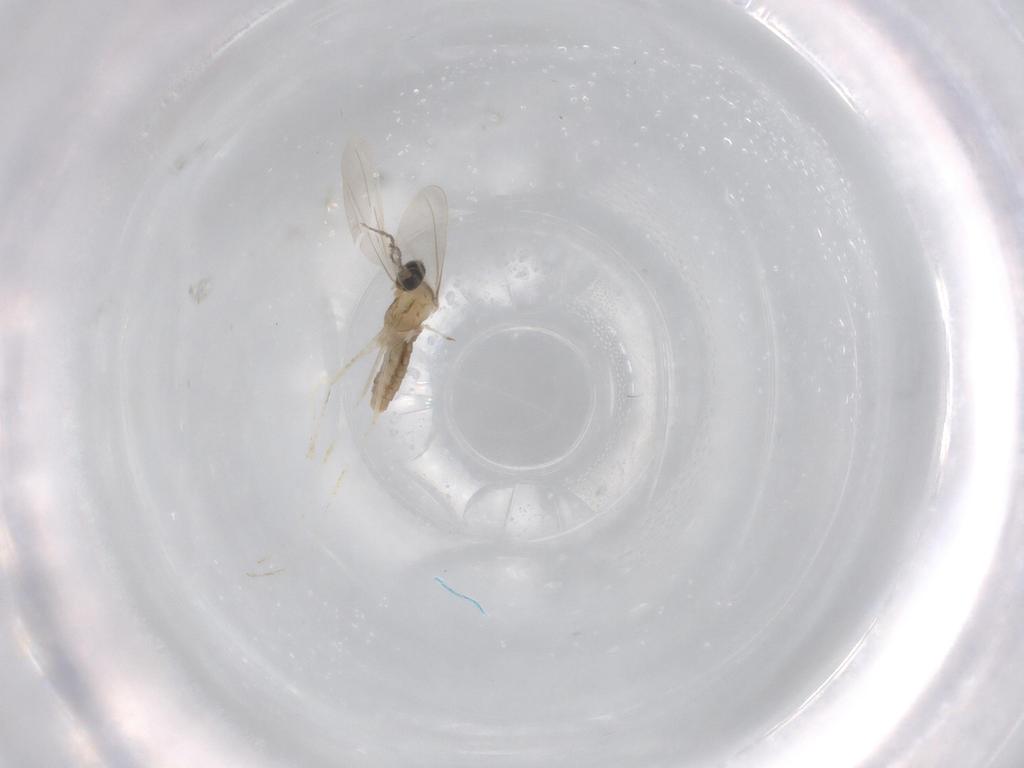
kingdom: Animalia
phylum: Arthropoda
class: Insecta
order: Diptera
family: Cecidomyiidae
